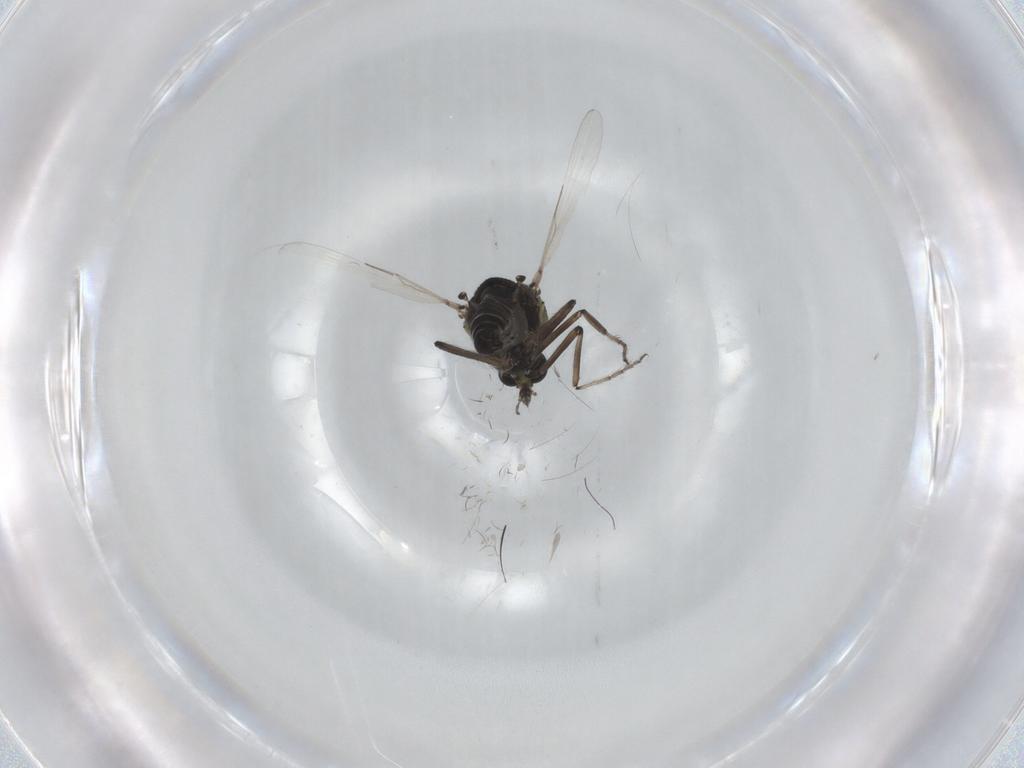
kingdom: Animalia
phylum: Arthropoda
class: Insecta
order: Diptera
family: Ceratopogonidae
